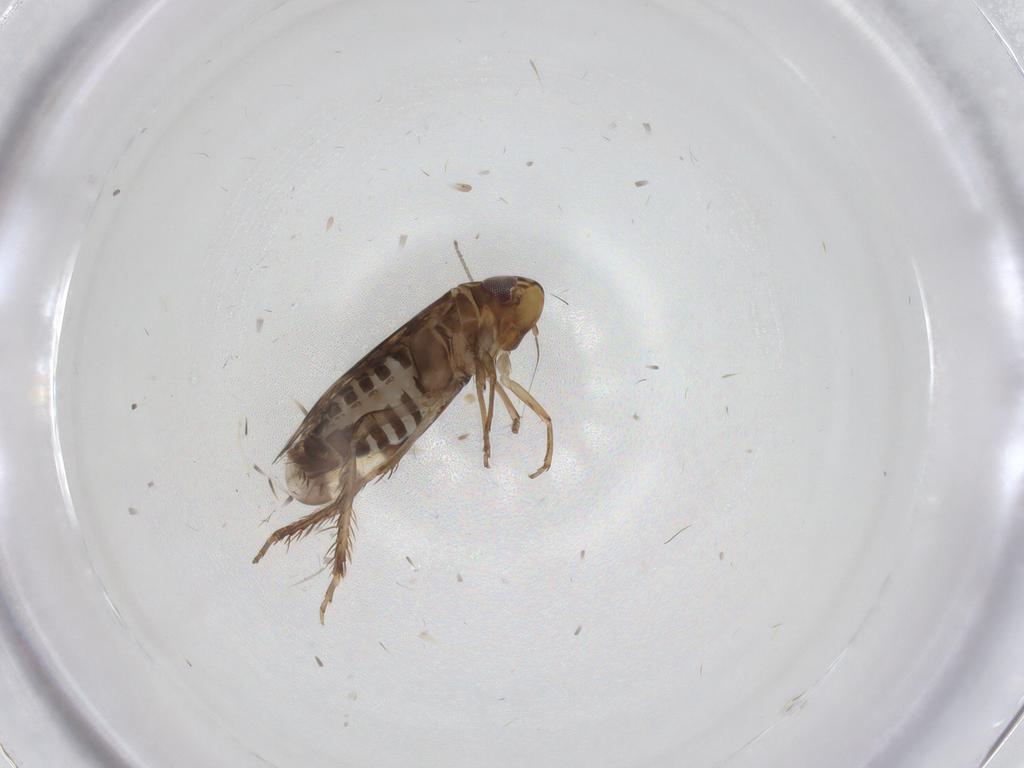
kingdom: Animalia
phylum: Arthropoda
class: Insecta
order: Hemiptera
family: Cicadellidae
